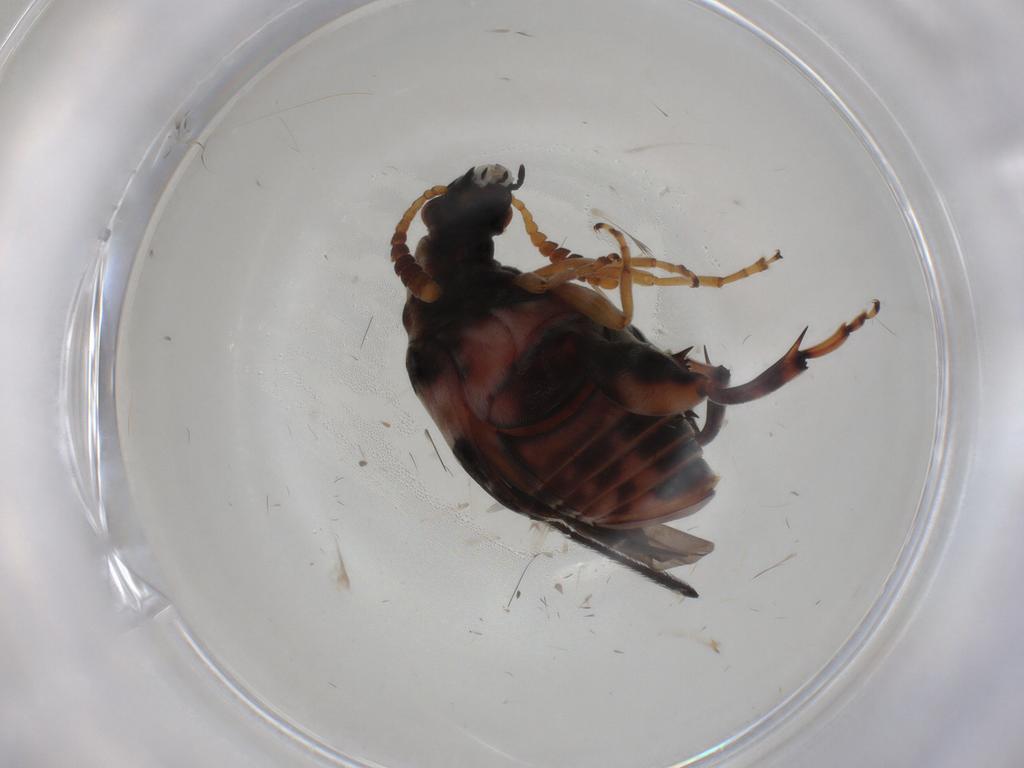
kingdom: Animalia
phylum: Arthropoda
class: Insecta
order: Coleoptera
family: Chrysomelidae
